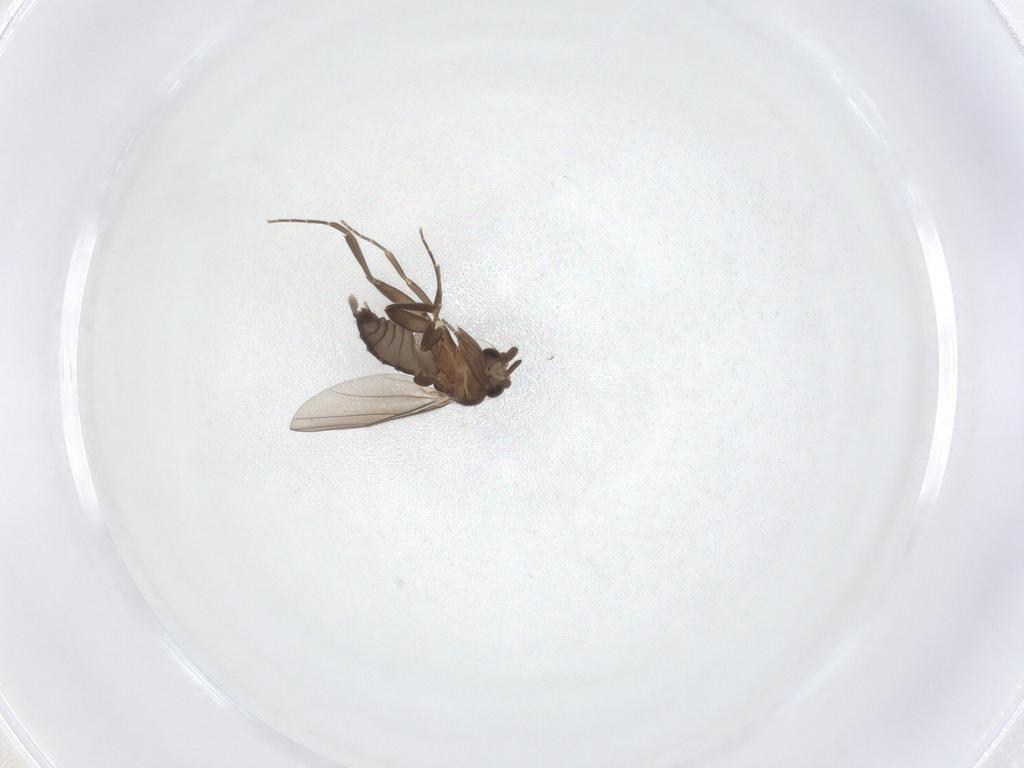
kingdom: Animalia
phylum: Arthropoda
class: Insecta
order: Diptera
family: Phoridae
